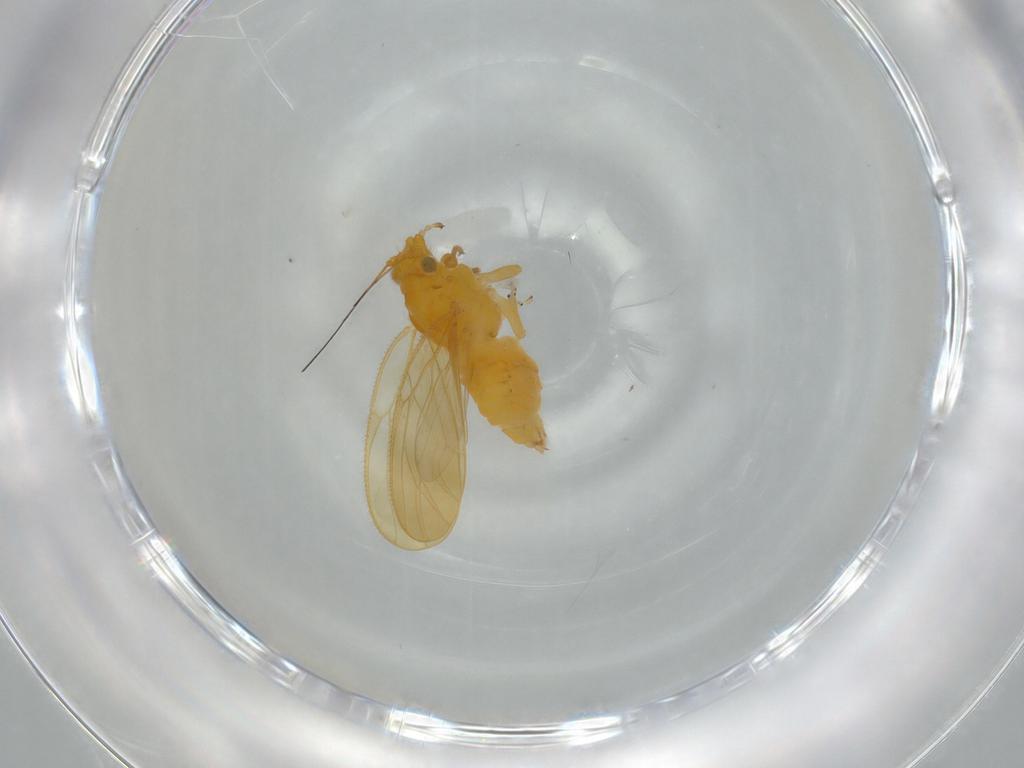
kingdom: Animalia
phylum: Arthropoda
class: Insecta
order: Hemiptera
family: Psyllidae
